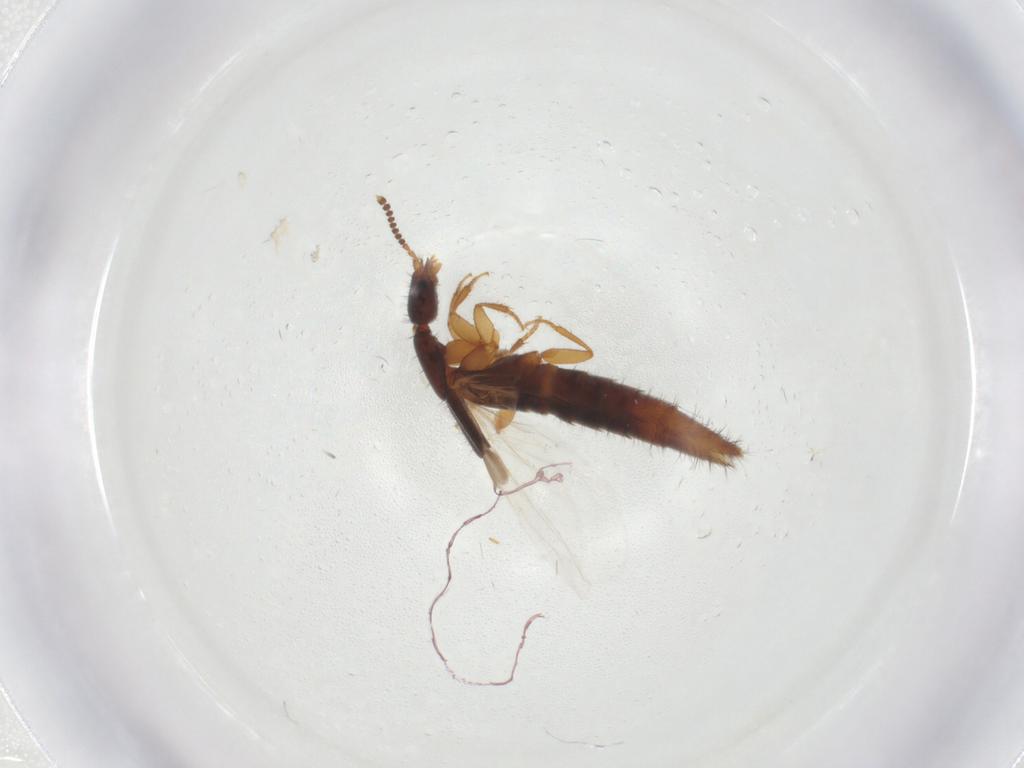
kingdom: Animalia
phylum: Arthropoda
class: Insecta
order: Coleoptera
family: Staphylinidae
